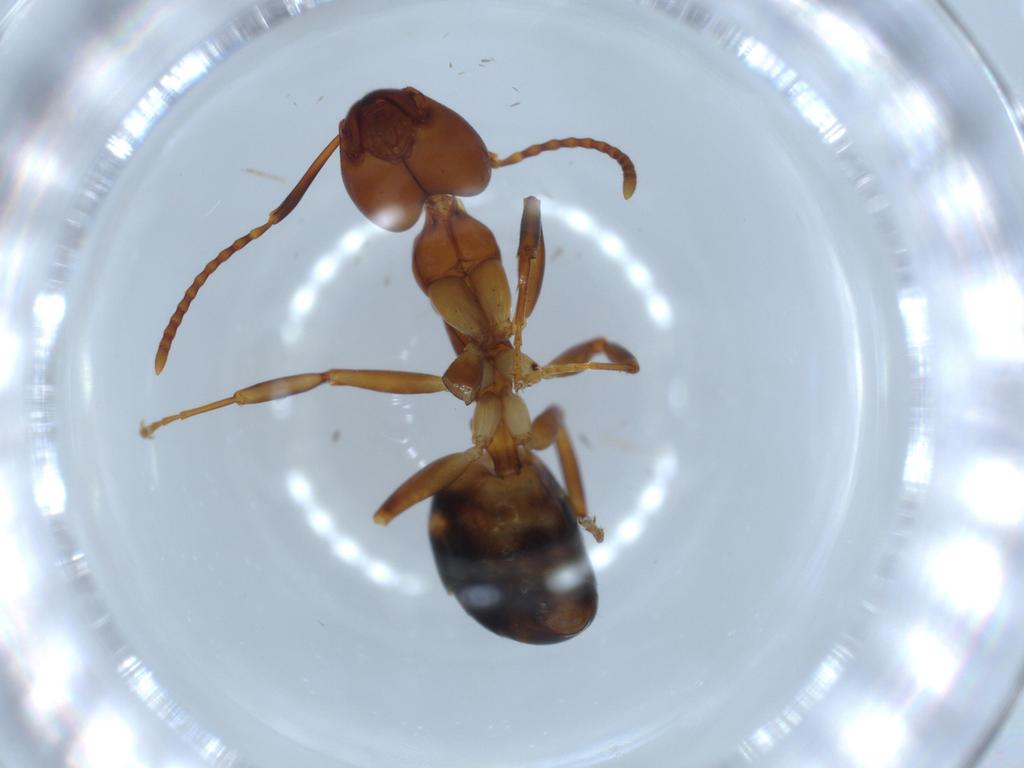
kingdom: Animalia
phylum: Arthropoda
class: Insecta
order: Hymenoptera
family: Formicidae
